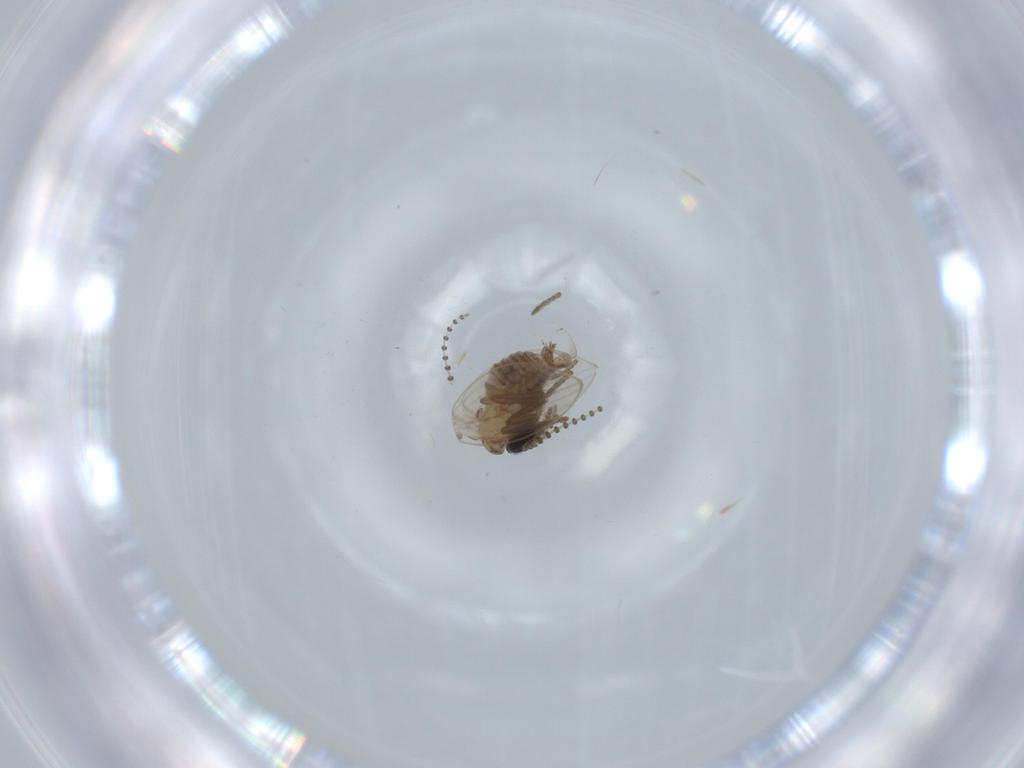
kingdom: Animalia
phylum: Arthropoda
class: Insecta
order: Diptera
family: Psychodidae
